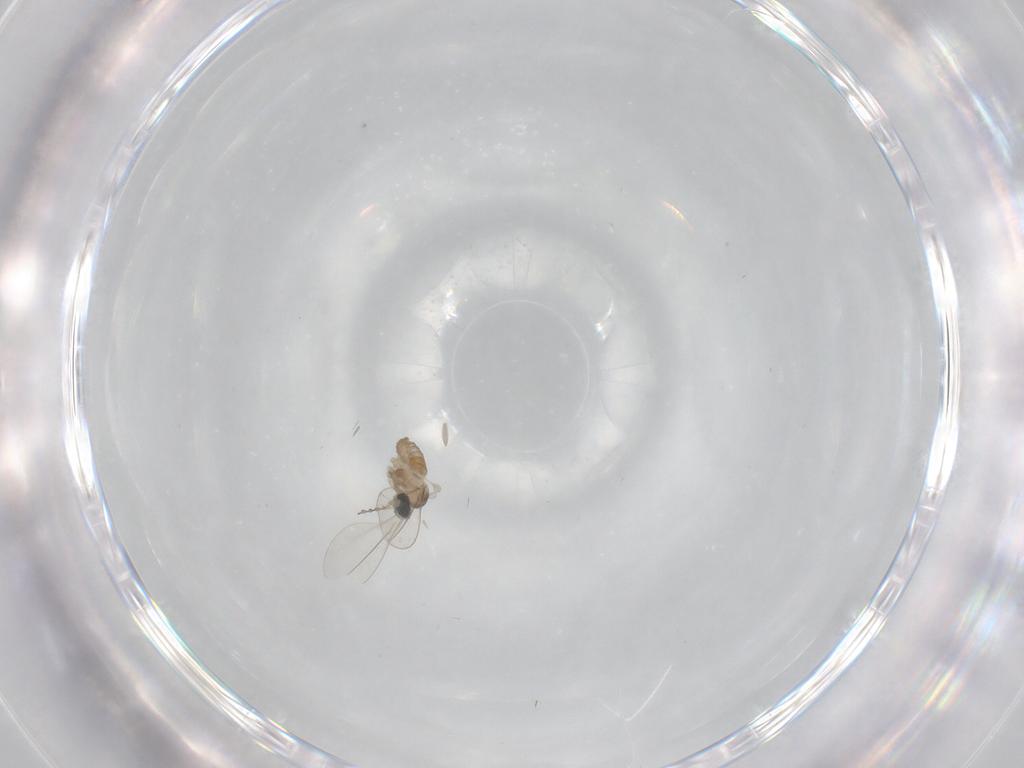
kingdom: Animalia
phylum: Arthropoda
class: Insecta
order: Diptera
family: Cecidomyiidae
